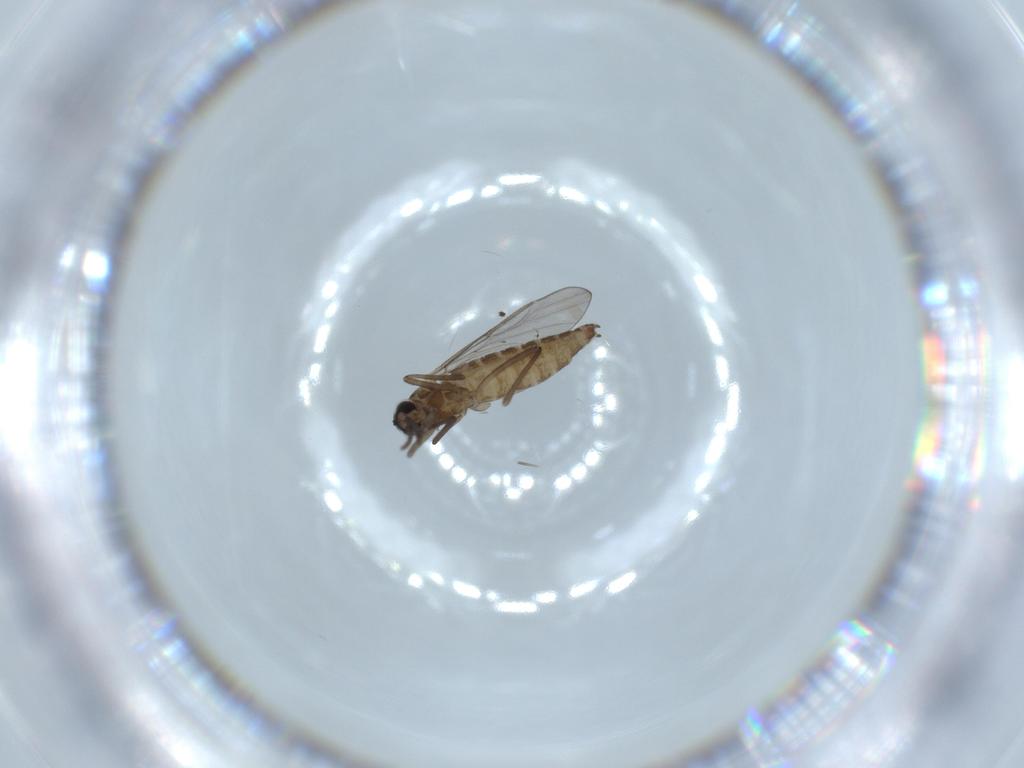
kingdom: Animalia
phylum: Arthropoda
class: Insecta
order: Diptera
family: Cecidomyiidae
